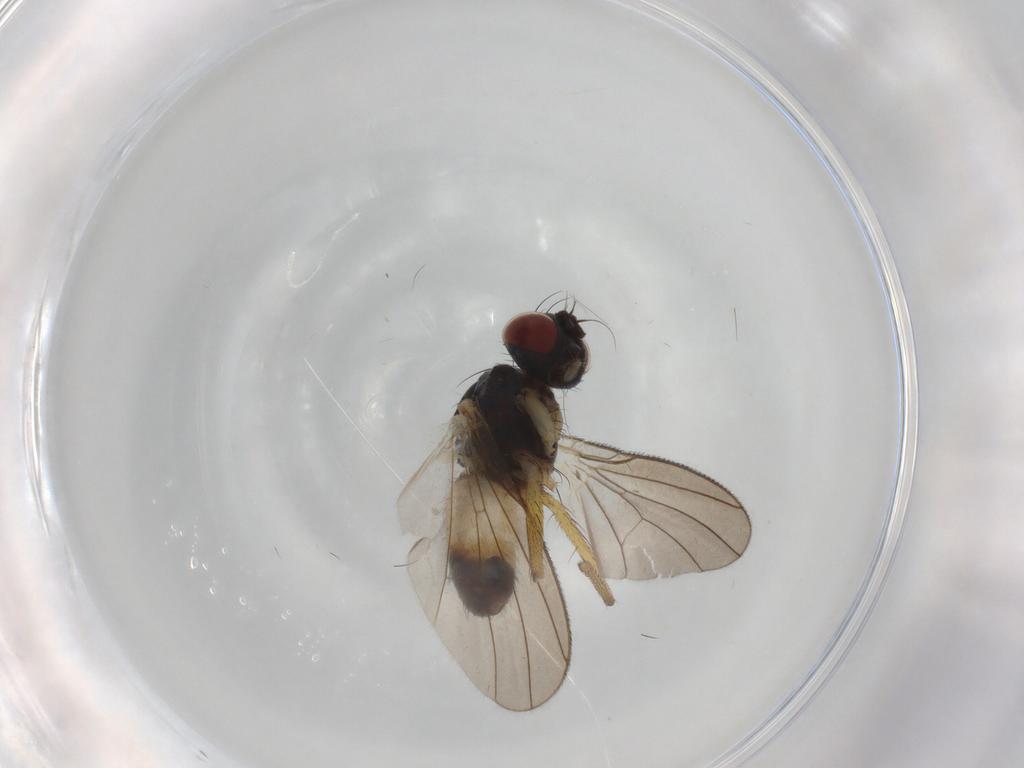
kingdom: Animalia
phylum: Arthropoda
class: Insecta
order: Diptera
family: Muscidae
